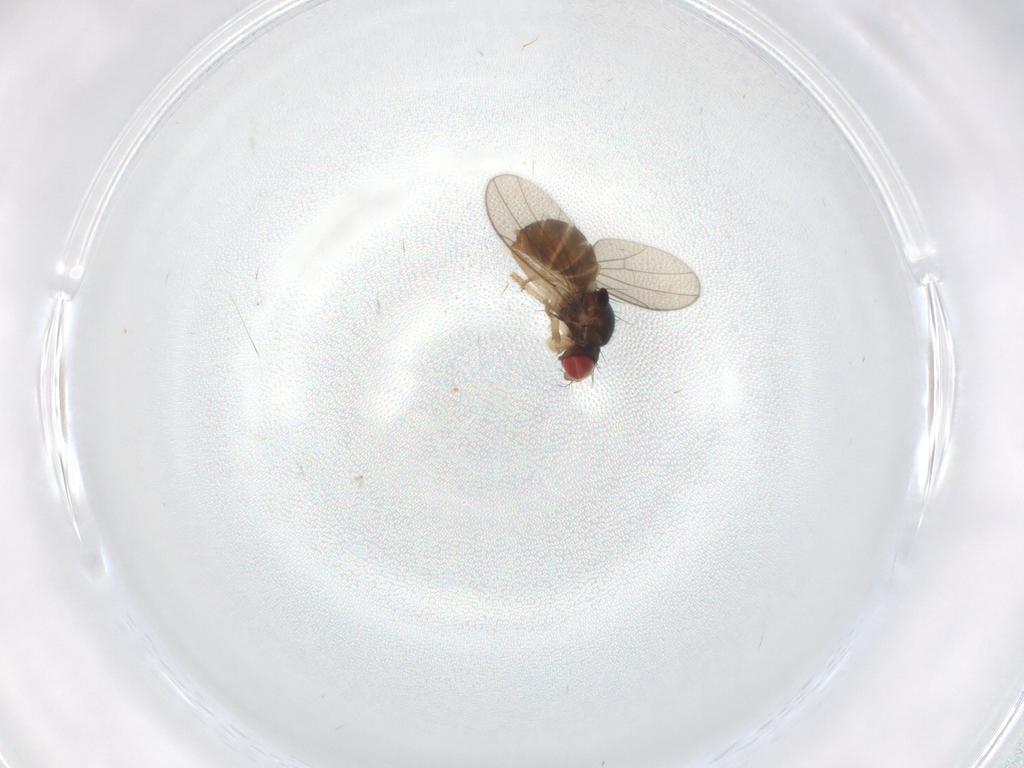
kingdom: Animalia
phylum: Arthropoda
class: Insecta
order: Diptera
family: Drosophilidae
